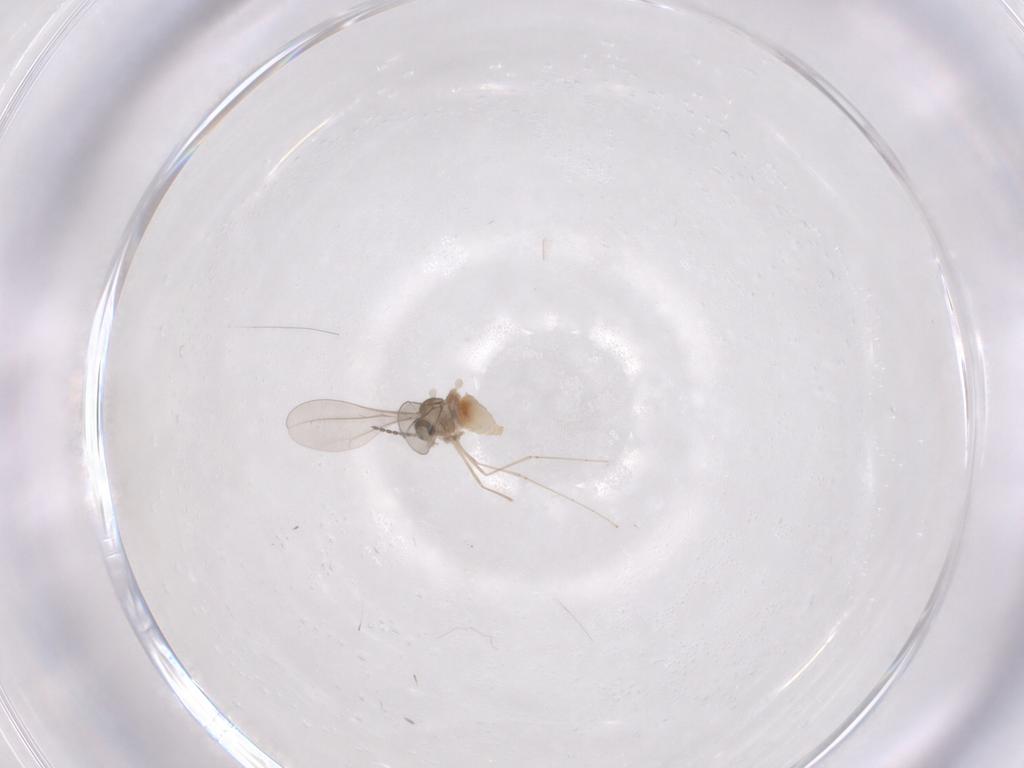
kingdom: Animalia
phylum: Arthropoda
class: Insecta
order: Diptera
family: Cecidomyiidae
